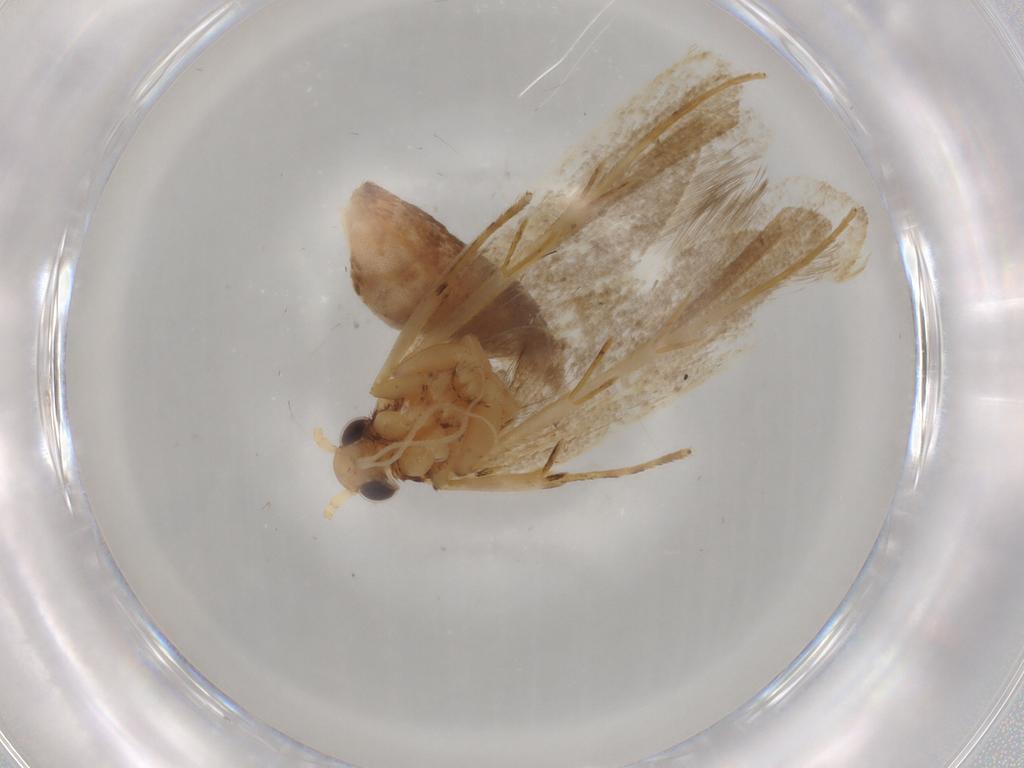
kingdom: Animalia
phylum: Arthropoda
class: Insecta
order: Lepidoptera
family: Lecithoceridae
